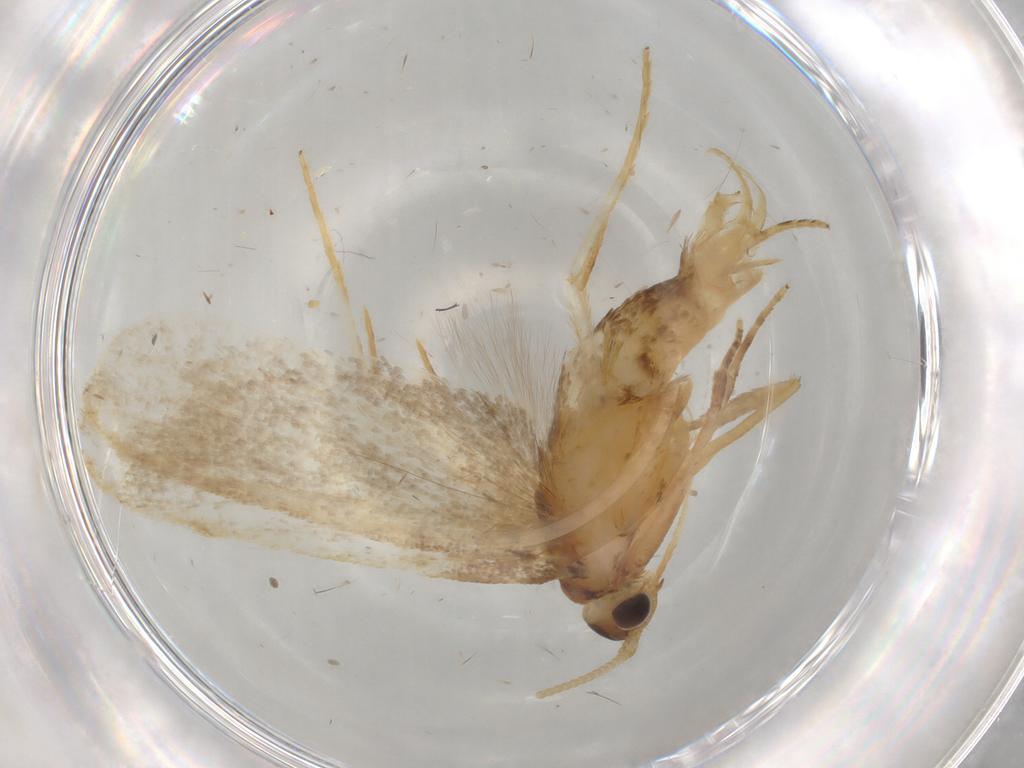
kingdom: Animalia
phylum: Arthropoda
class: Insecta
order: Lepidoptera
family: Lecithoceridae
